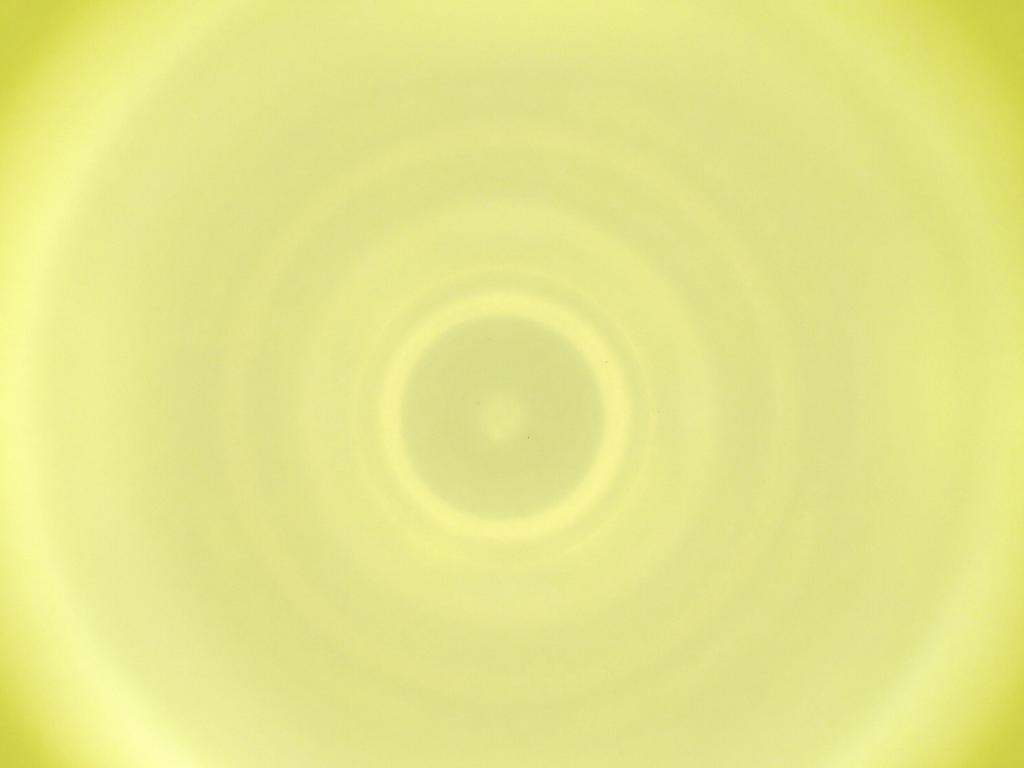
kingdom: Animalia
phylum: Arthropoda
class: Insecta
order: Diptera
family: Cecidomyiidae
